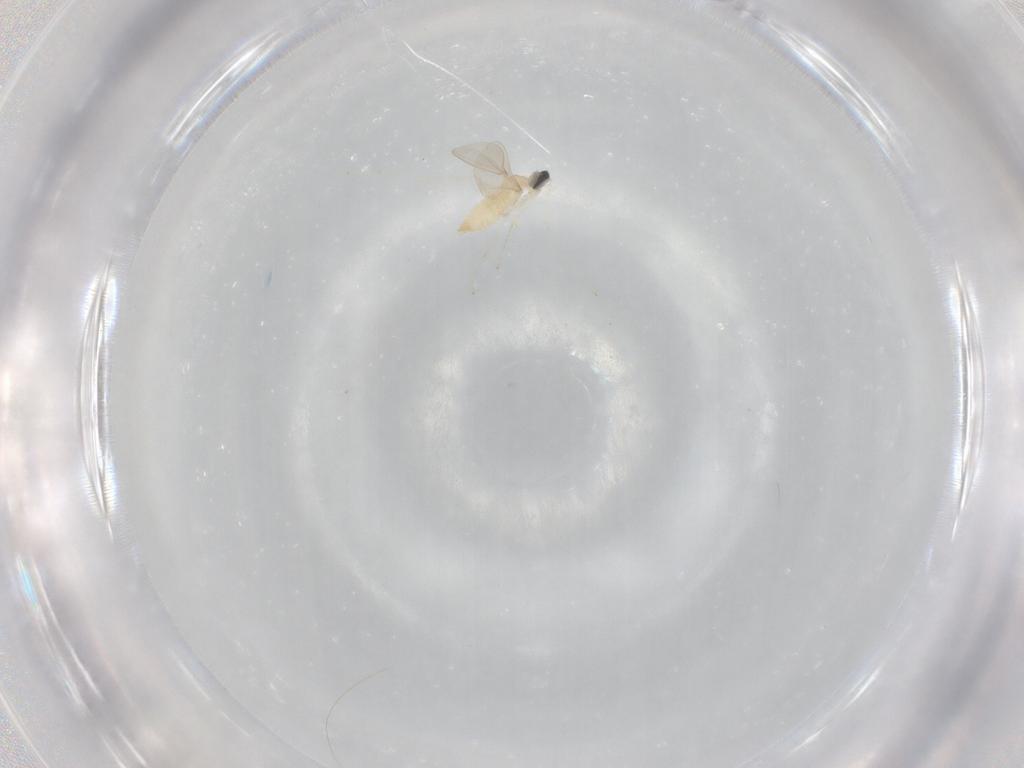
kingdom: Animalia
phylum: Arthropoda
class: Insecta
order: Diptera
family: Cecidomyiidae
